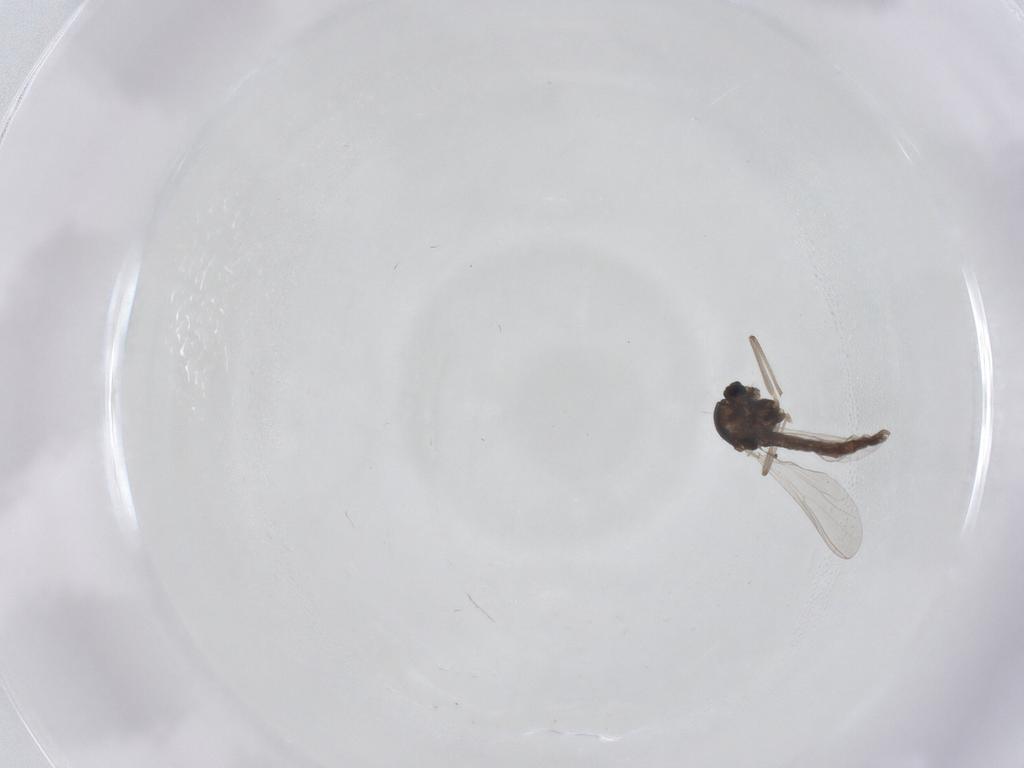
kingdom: Animalia
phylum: Arthropoda
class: Insecta
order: Diptera
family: Chironomidae
